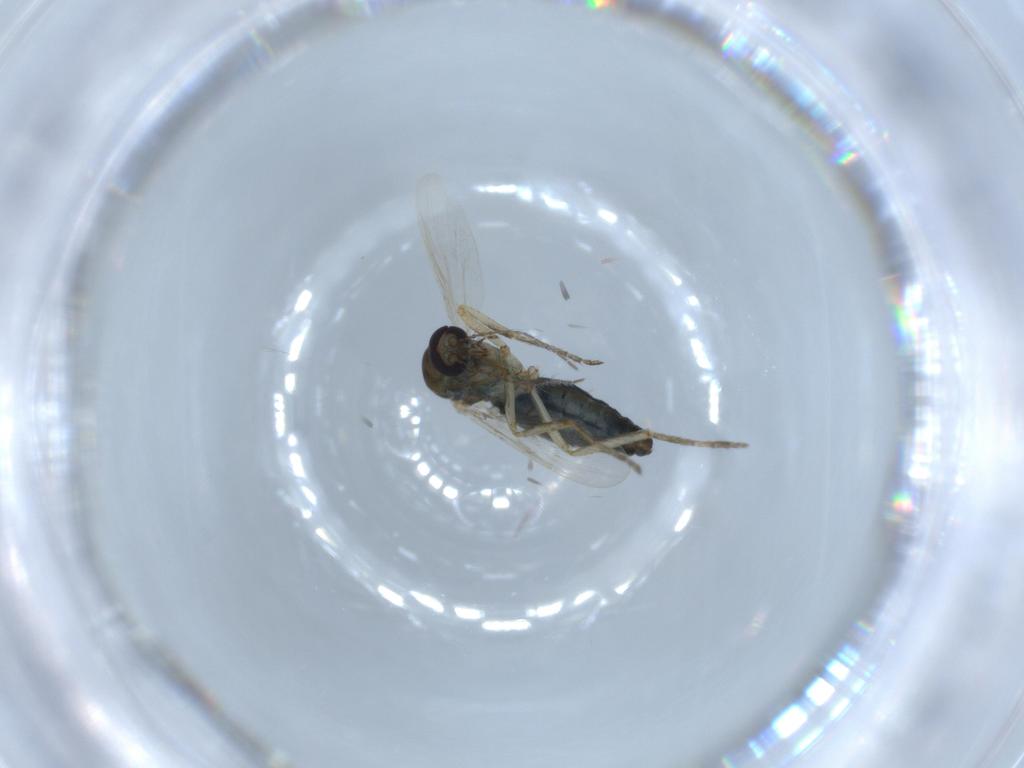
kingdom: Animalia
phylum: Arthropoda
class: Insecta
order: Diptera
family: Ceratopogonidae
